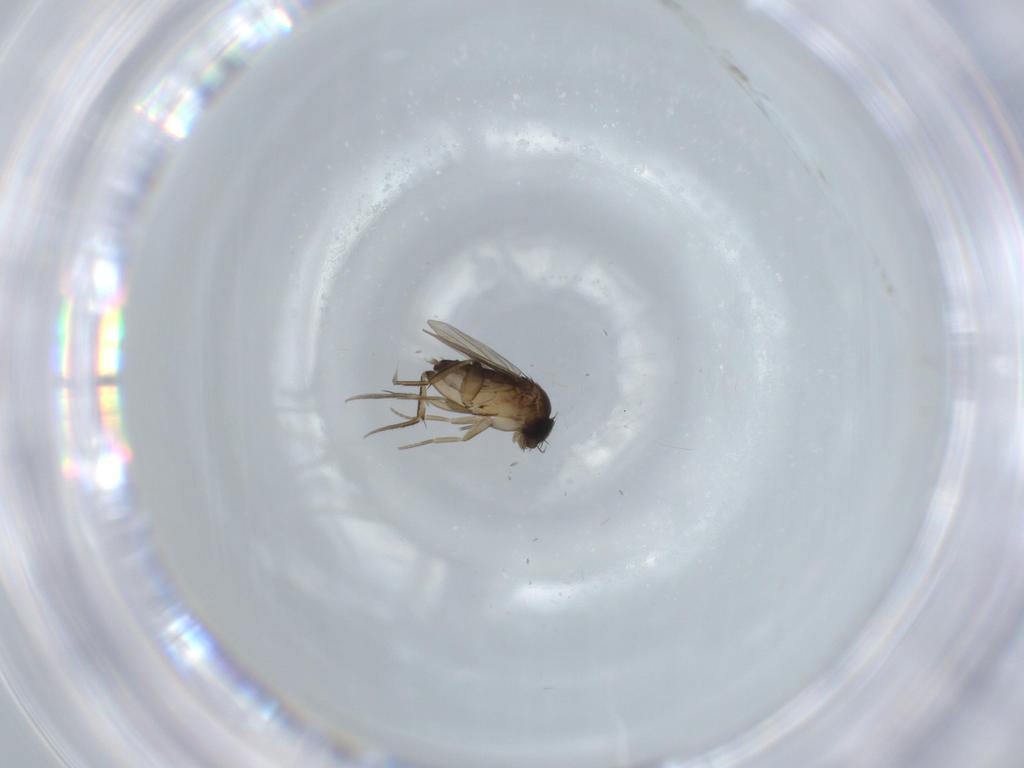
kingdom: Animalia
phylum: Arthropoda
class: Insecta
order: Diptera
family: Phoridae
